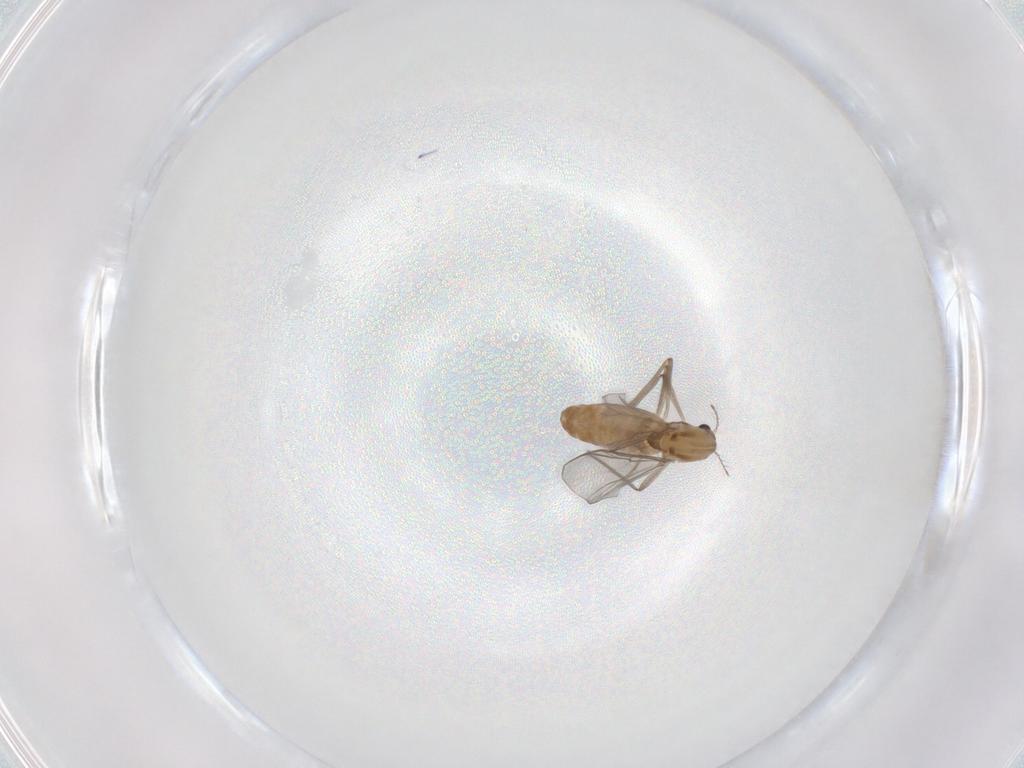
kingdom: Animalia
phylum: Arthropoda
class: Insecta
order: Diptera
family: Chironomidae
